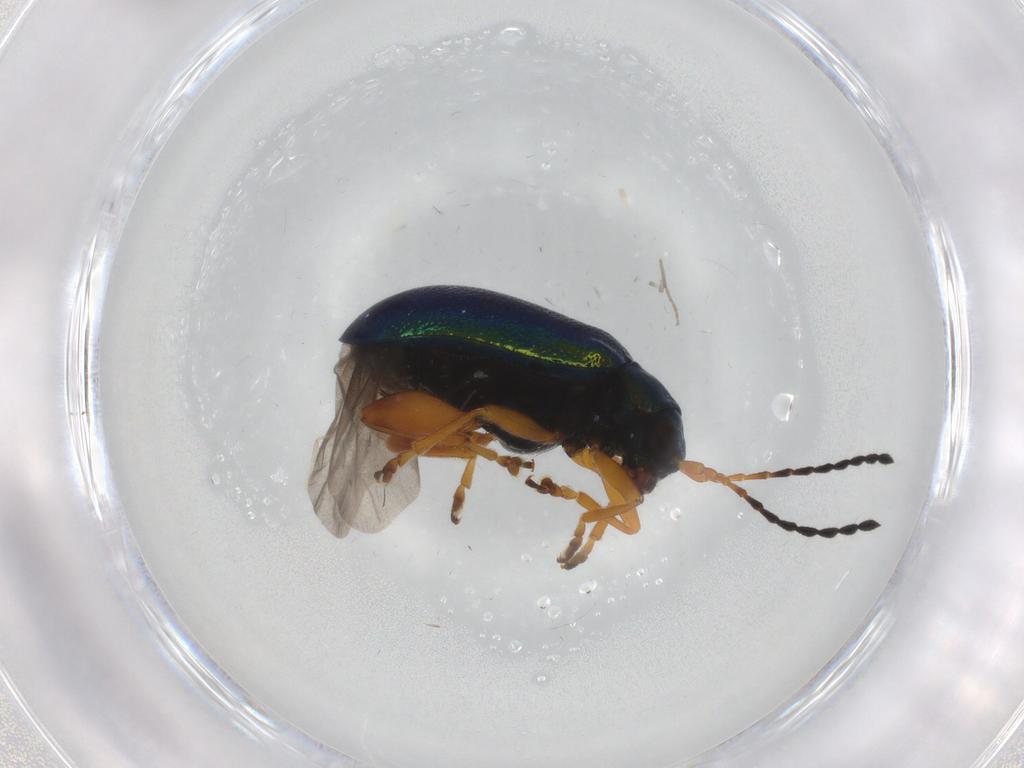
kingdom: Animalia
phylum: Arthropoda
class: Insecta
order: Coleoptera
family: Chrysomelidae
